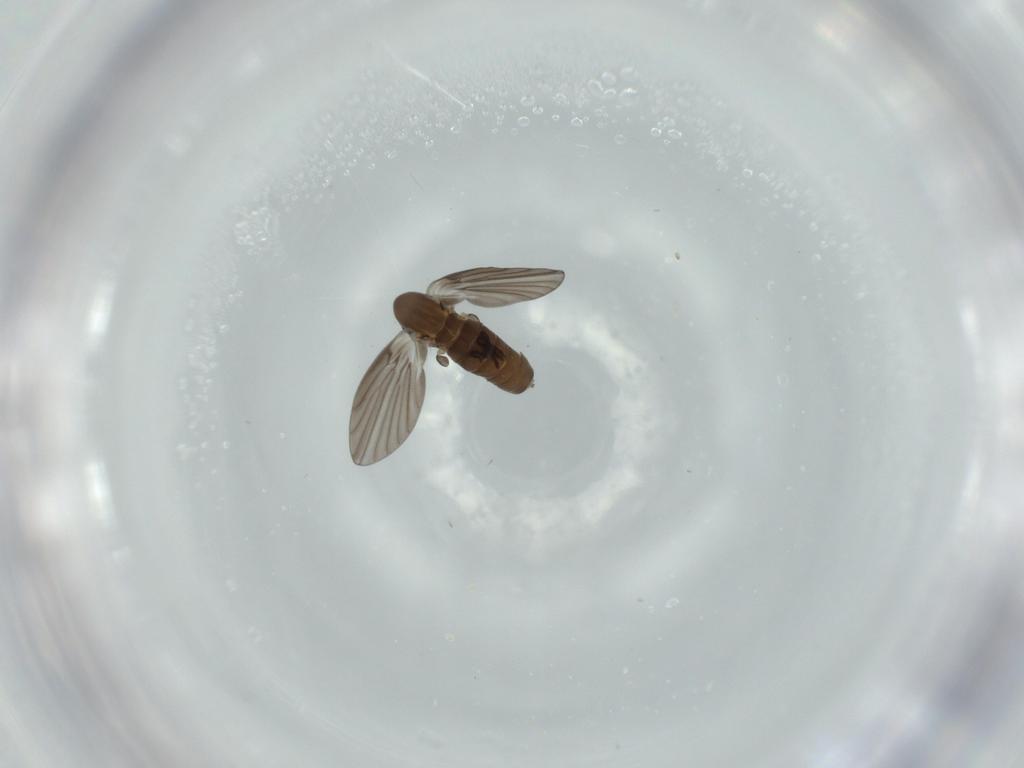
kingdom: Animalia
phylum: Arthropoda
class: Insecta
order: Diptera
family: Psychodidae
